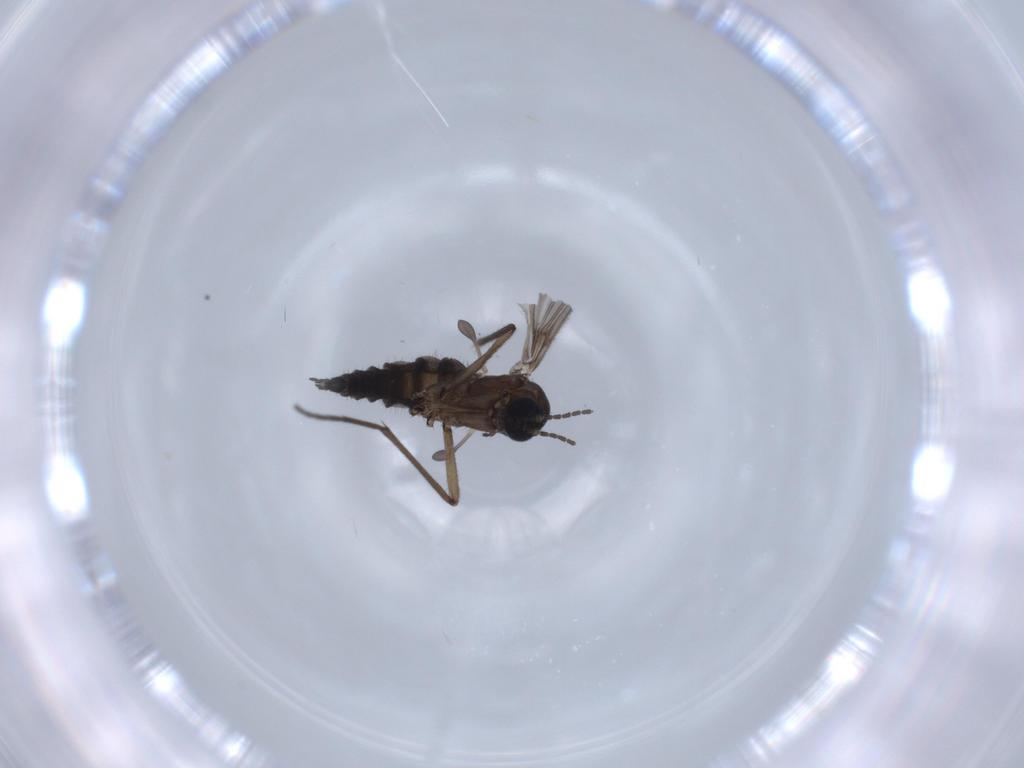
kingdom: Animalia
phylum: Arthropoda
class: Insecta
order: Diptera
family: Sciaridae
